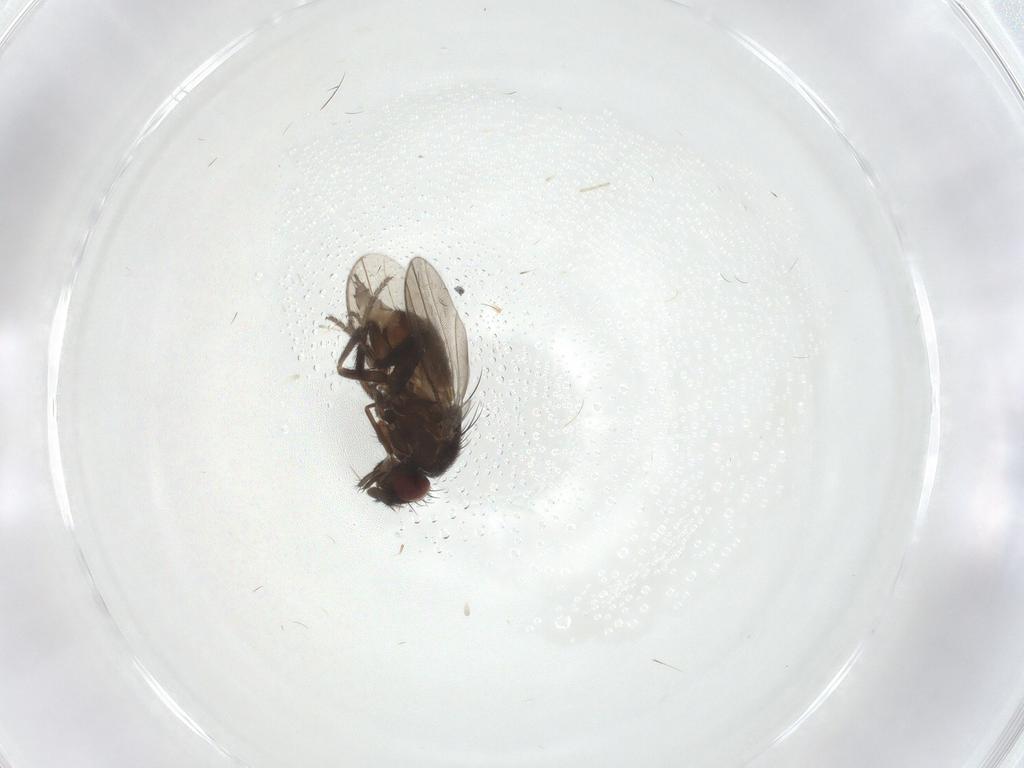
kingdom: Animalia
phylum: Arthropoda
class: Insecta
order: Diptera
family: Milichiidae
